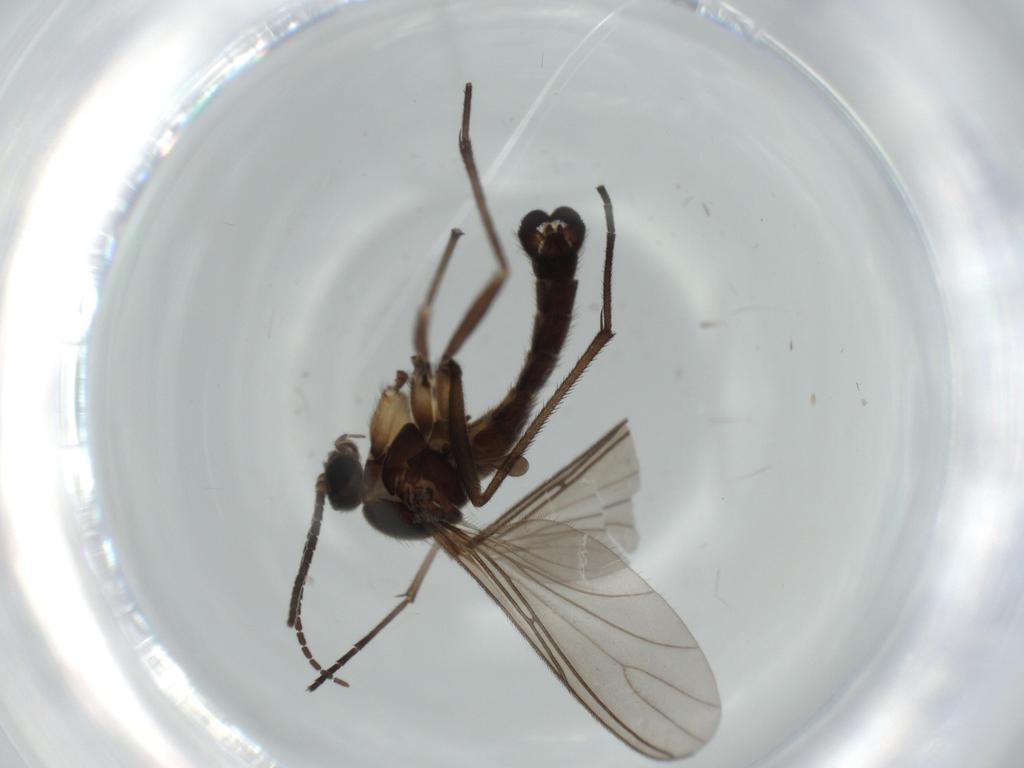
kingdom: Animalia
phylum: Arthropoda
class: Insecta
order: Diptera
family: Sciaridae
